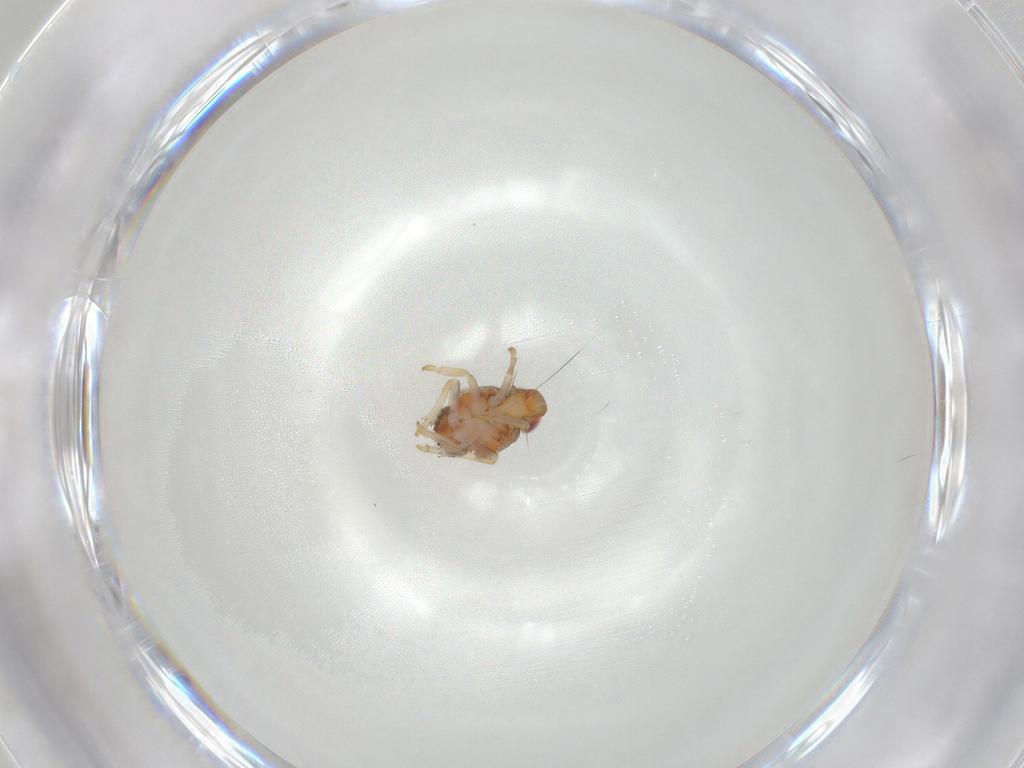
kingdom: Animalia
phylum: Arthropoda
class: Insecta
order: Hemiptera
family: Issidae
